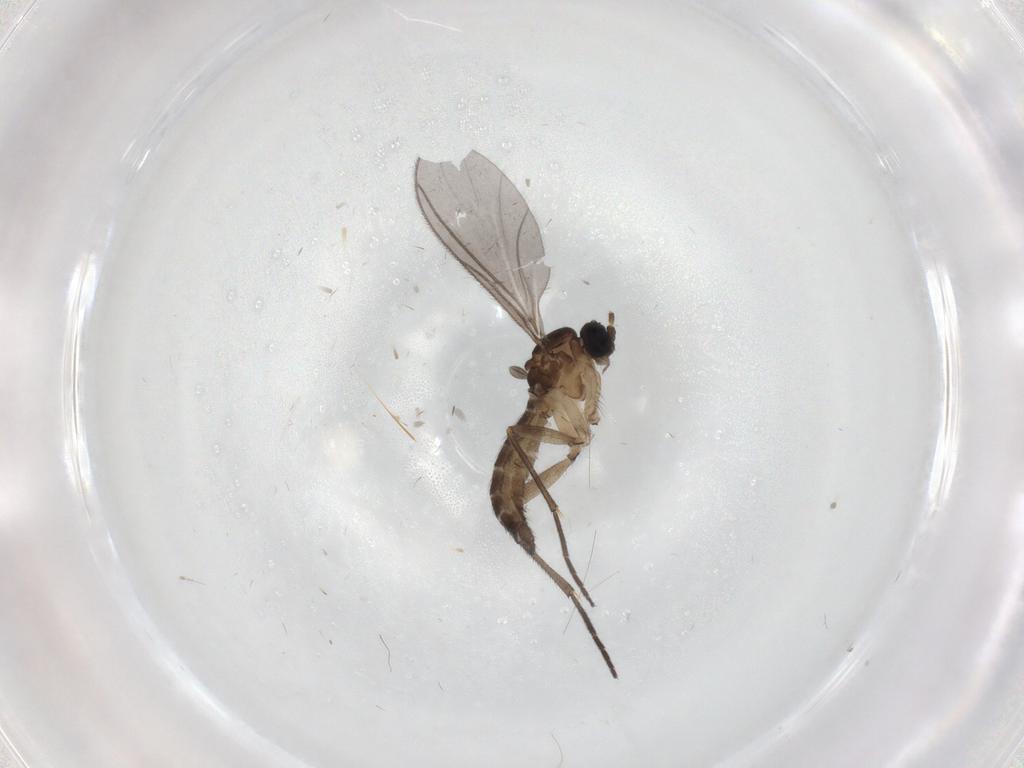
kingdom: Animalia
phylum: Arthropoda
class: Insecta
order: Diptera
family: Sciaridae
